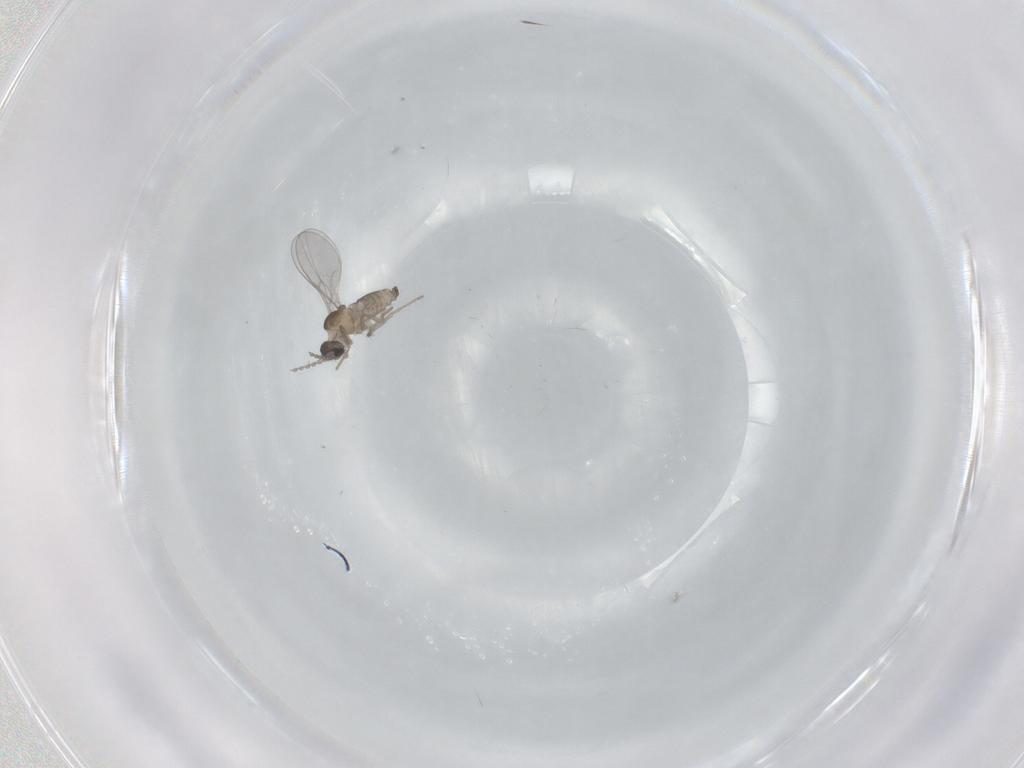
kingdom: Animalia
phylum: Arthropoda
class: Insecta
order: Diptera
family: Cecidomyiidae
